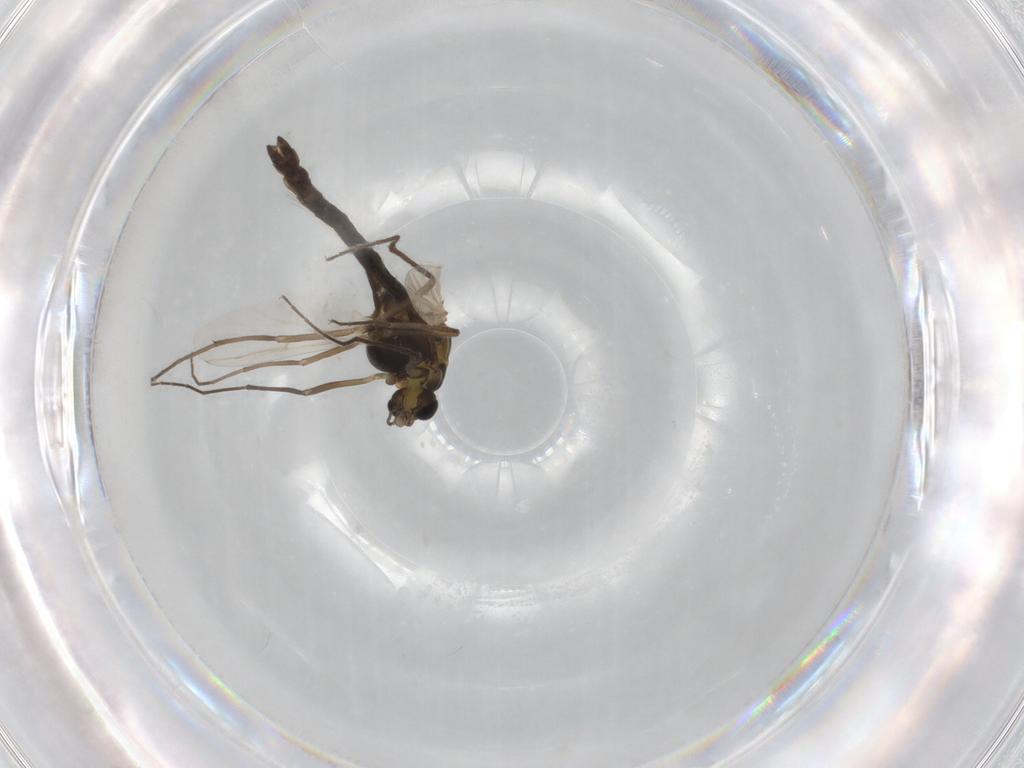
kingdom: Animalia
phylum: Arthropoda
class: Insecta
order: Diptera
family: Chironomidae
